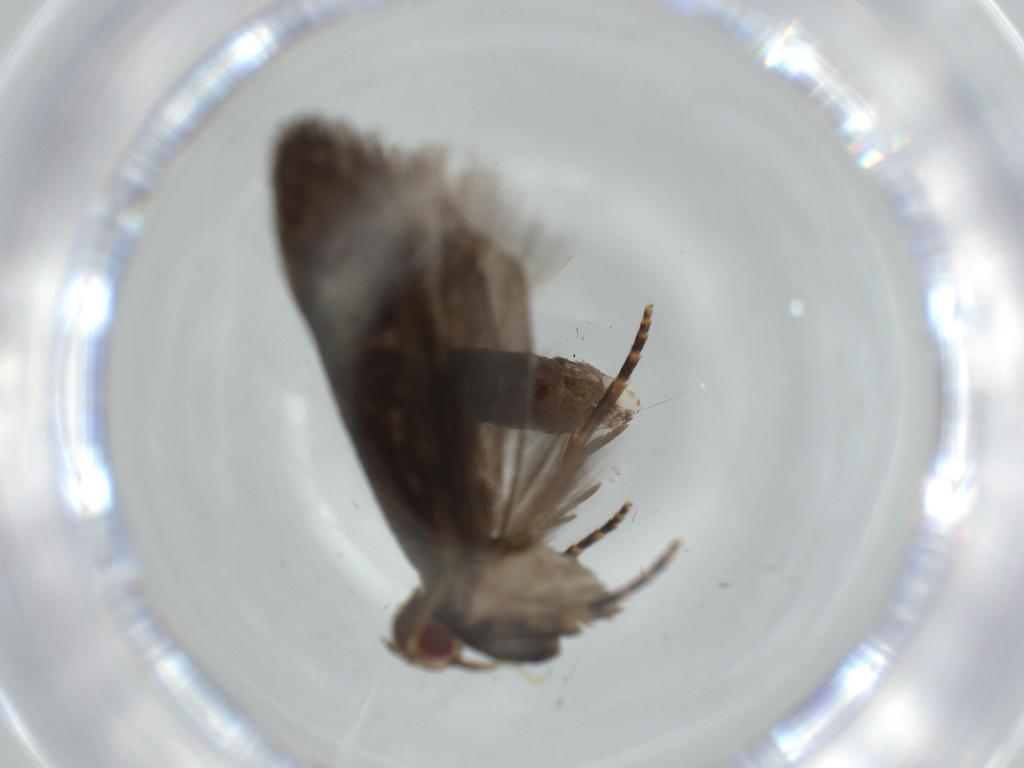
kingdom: Animalia
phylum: Arthropoda
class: Insecta
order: Lepidoptera
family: Cosmopterigidae
